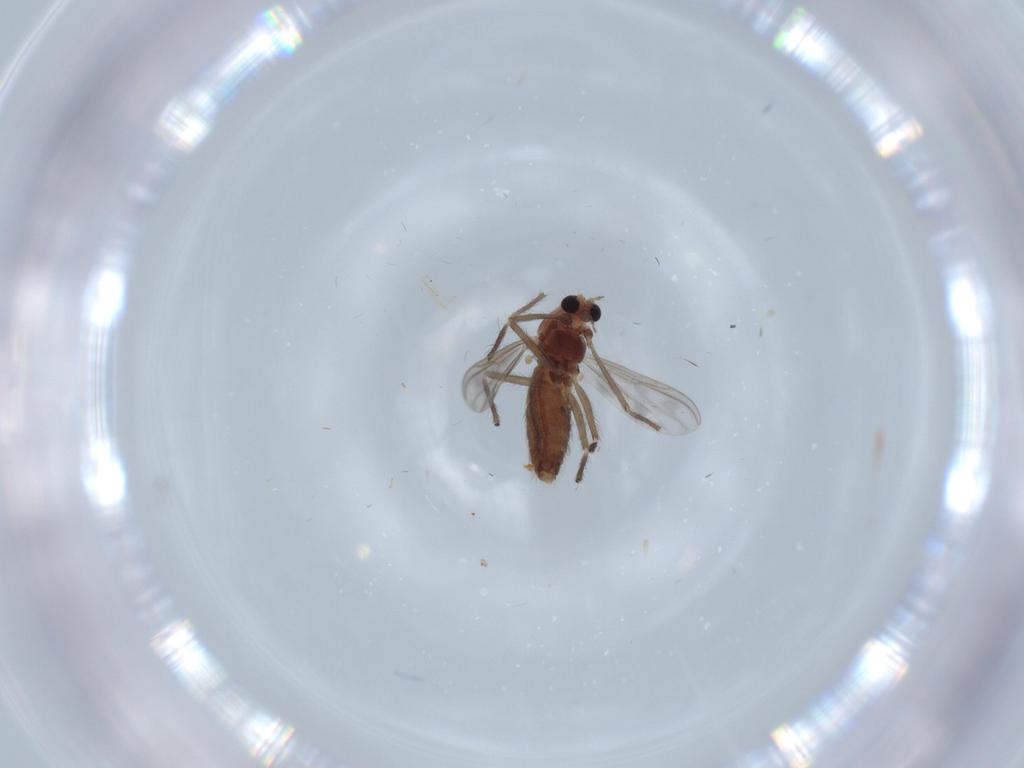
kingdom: Animalia
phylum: Arthropoda
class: Insecta
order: Diptera
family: Chironomidae
